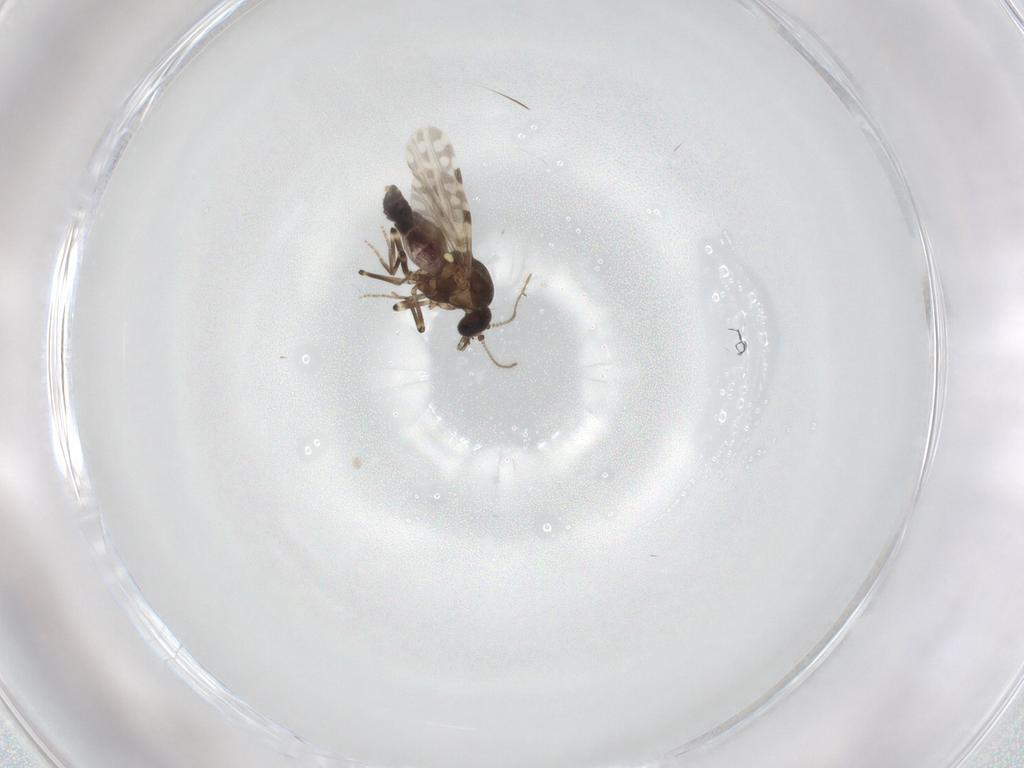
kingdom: Animalia
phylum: Arthropoda
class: Insecta
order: Diptera
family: Ceratopogonidae
